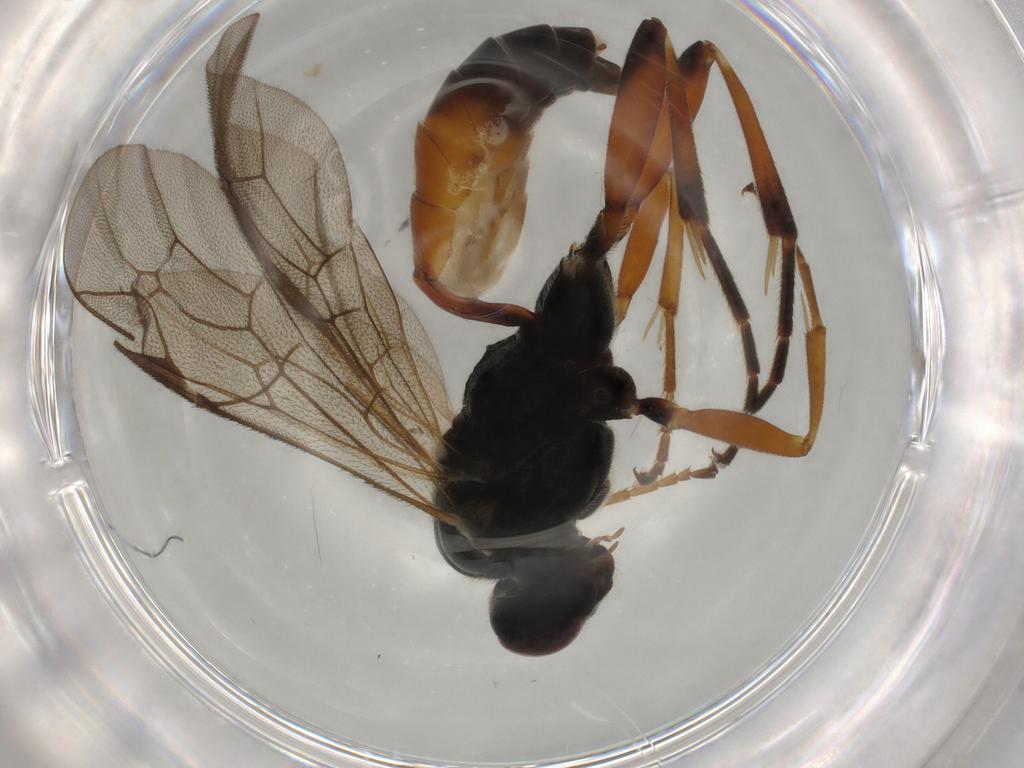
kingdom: Animalia
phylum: Arthropoda
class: Insecta
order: Hymenoptera
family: Ichneumonidae
